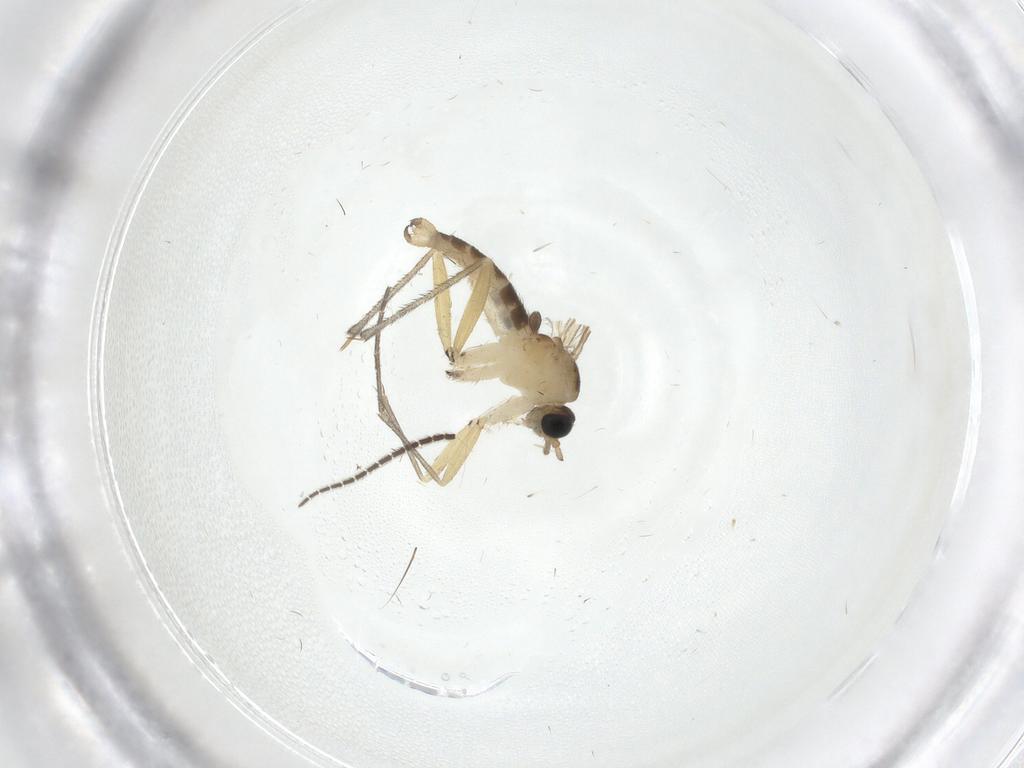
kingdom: Animalia
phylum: Arthropoda
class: Insecta
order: Diptera
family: Sciaridae
